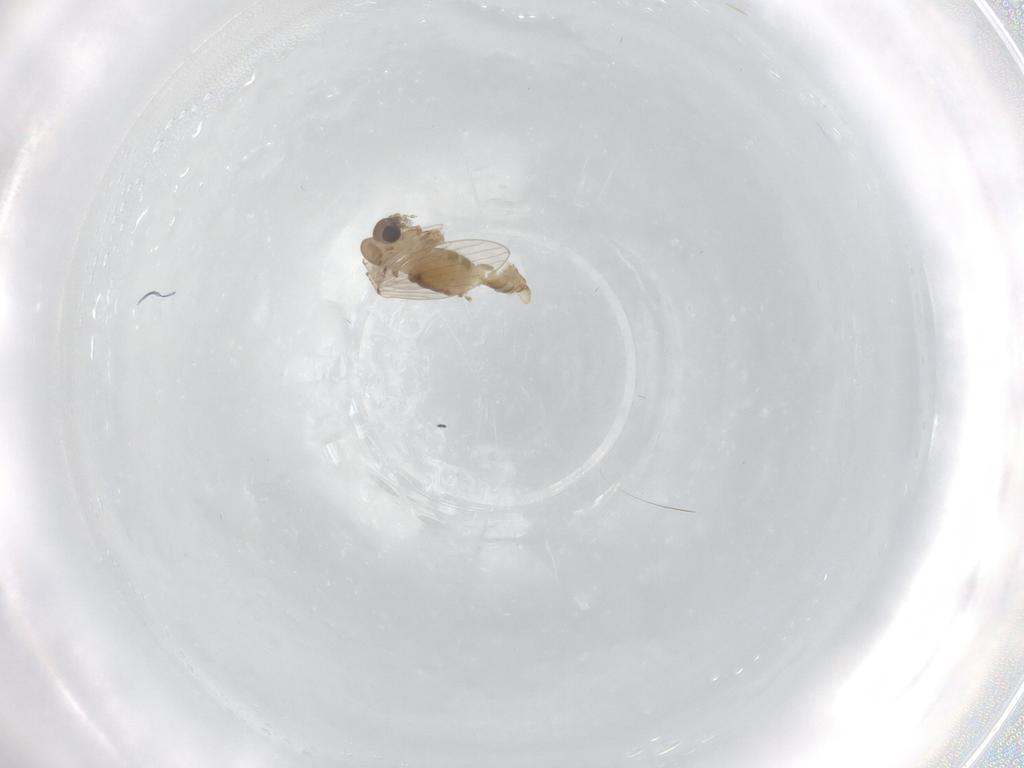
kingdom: Animalia
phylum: Arthropoda
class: Insecta
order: Diptera
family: Psychodidae
